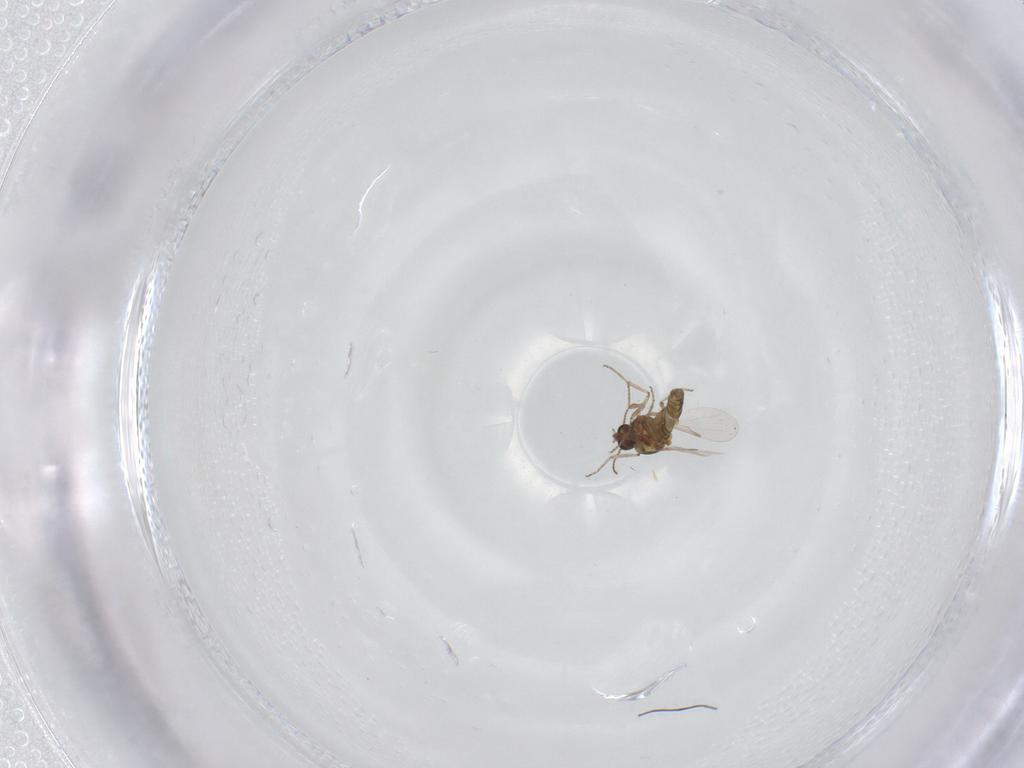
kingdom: Animalia
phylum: Arthropoda
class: Insecta
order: Diptera
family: Ceratopogonidae
